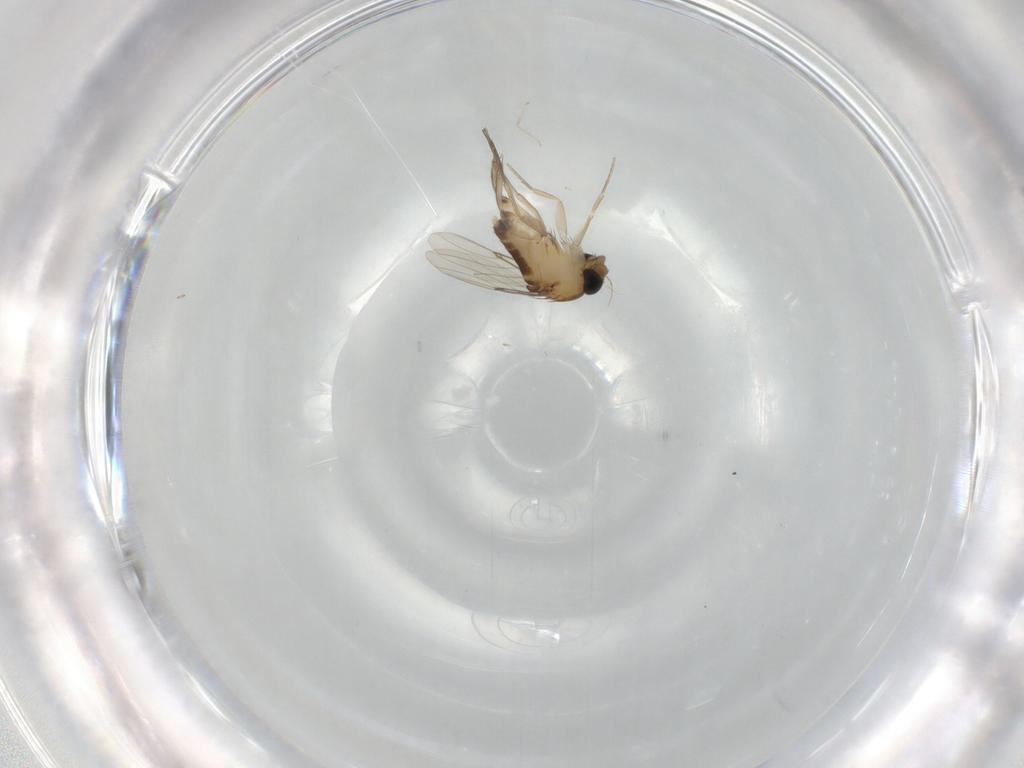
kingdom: Animalia
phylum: Arthropoda
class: Insecta
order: Diptera
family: Phoridae
